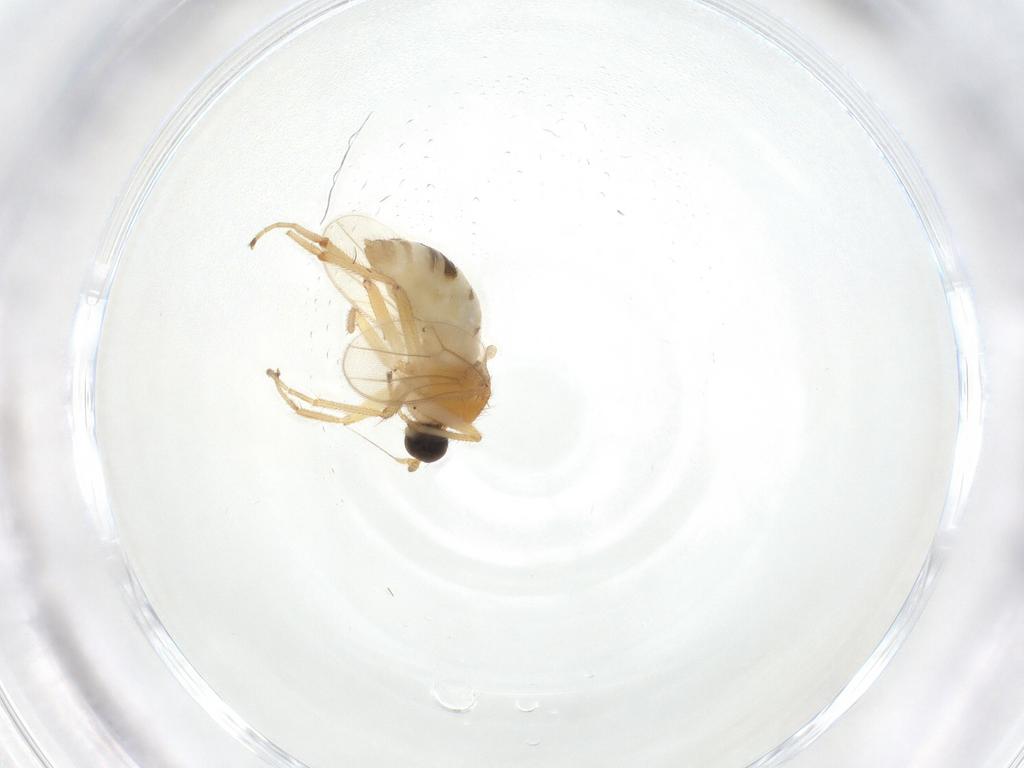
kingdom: Animalia
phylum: Arthropoda
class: Insecta
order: Diptera
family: Hybotidae
